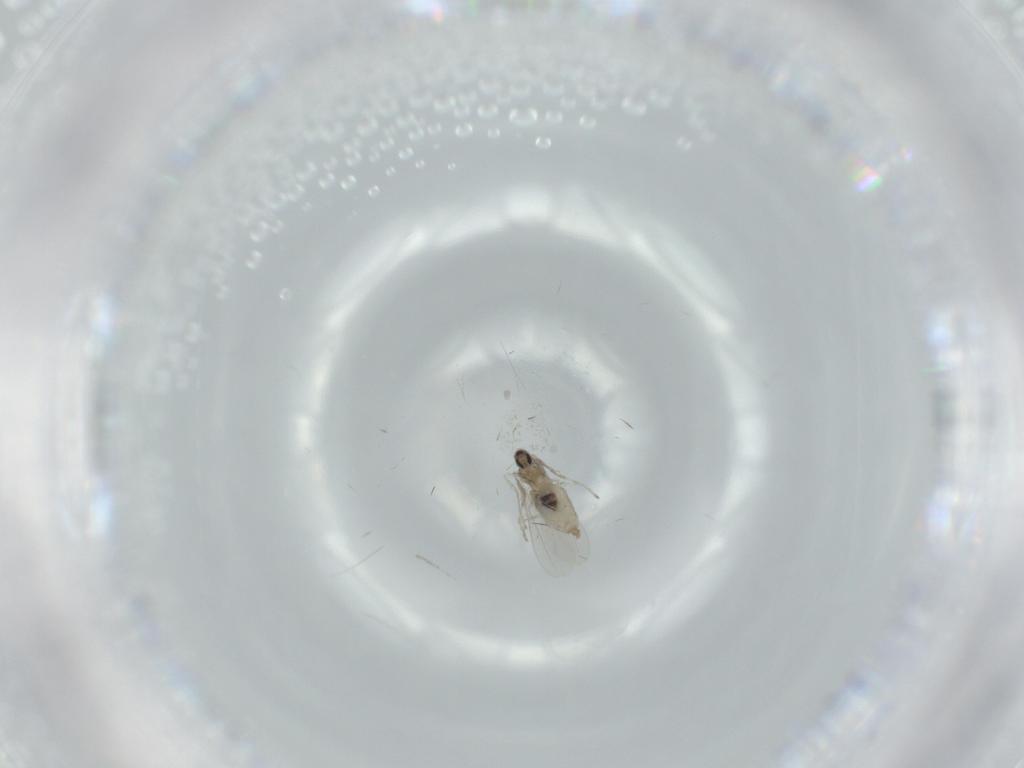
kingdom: Animalia
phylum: Arthropoda
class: Insecta
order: Diptera
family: Cecidomyiidae
